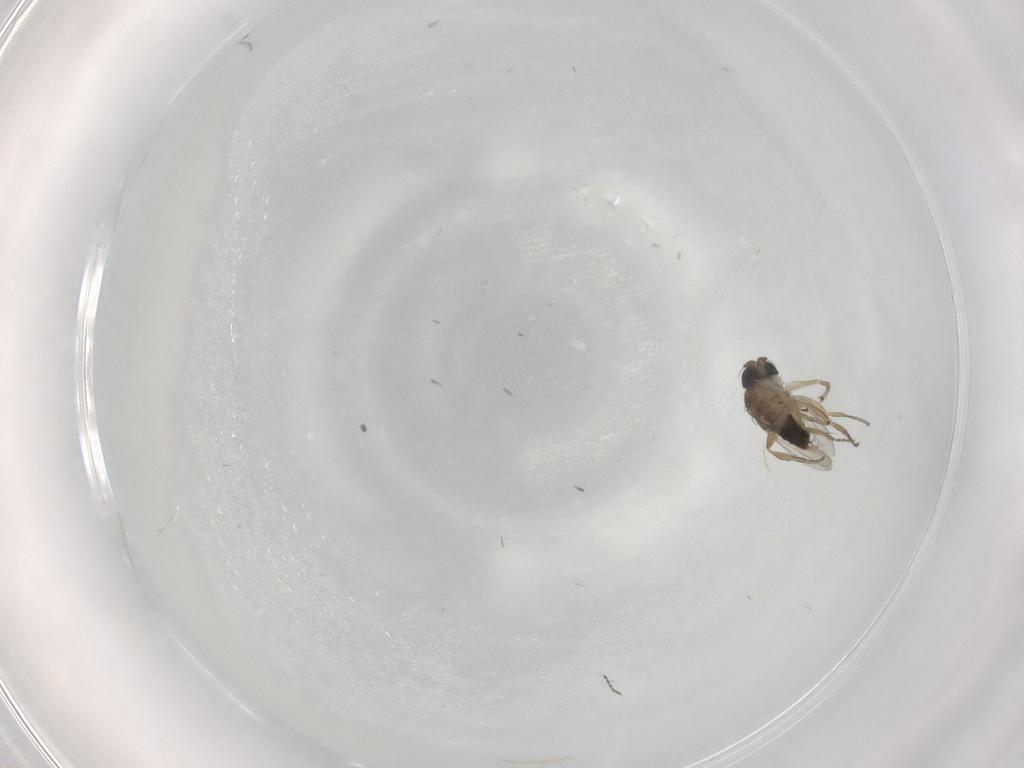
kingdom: Animalia
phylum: Arthropoda
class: Insecta
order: Diptera
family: Phoridae
